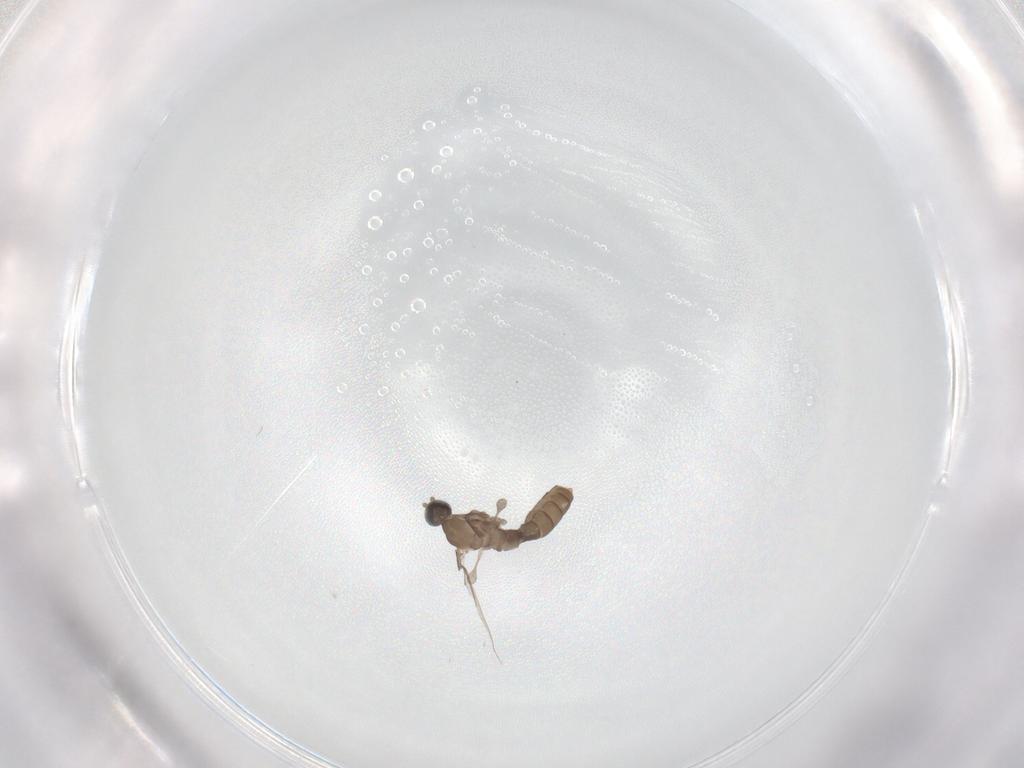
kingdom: Animalia
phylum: Arthropoda
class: Insecta
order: Diptera
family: Cecidomyiidae
